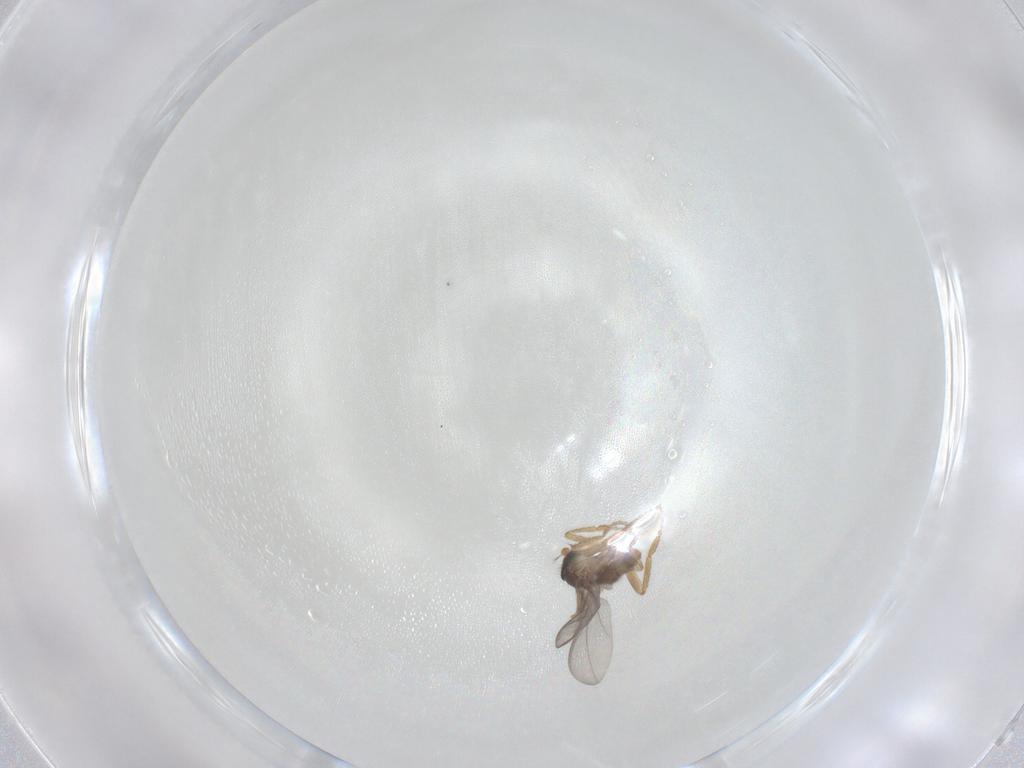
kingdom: Animalia
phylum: Arthropoda
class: Insecta
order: Diptera
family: Phoridae
